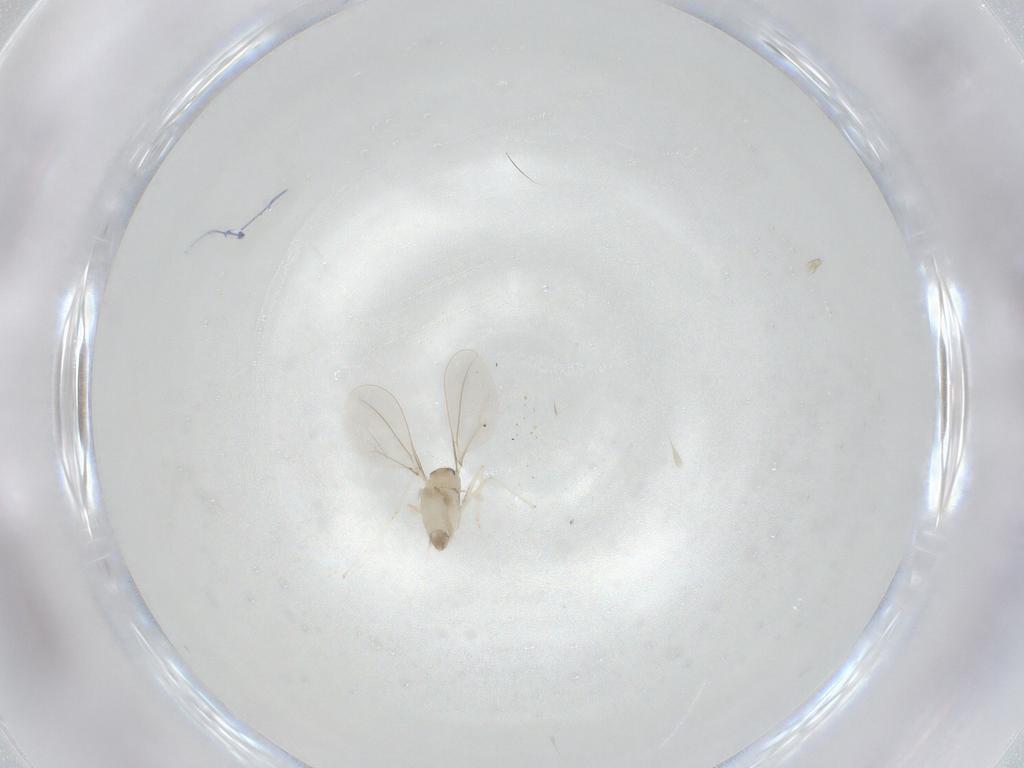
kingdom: Animalia
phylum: Arthropoda
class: Insecta
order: Diptera
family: Cecidomyiidae
